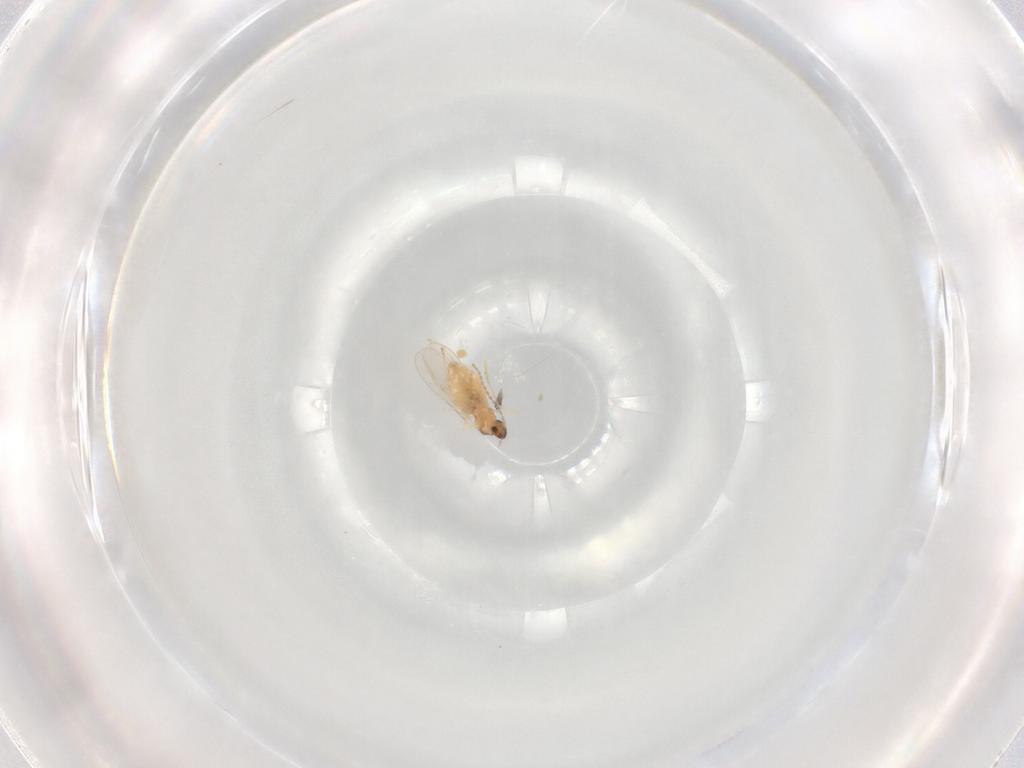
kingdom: Animalia
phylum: Arthropoda
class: Insecta
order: Diptera
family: Cecidomyiidae
